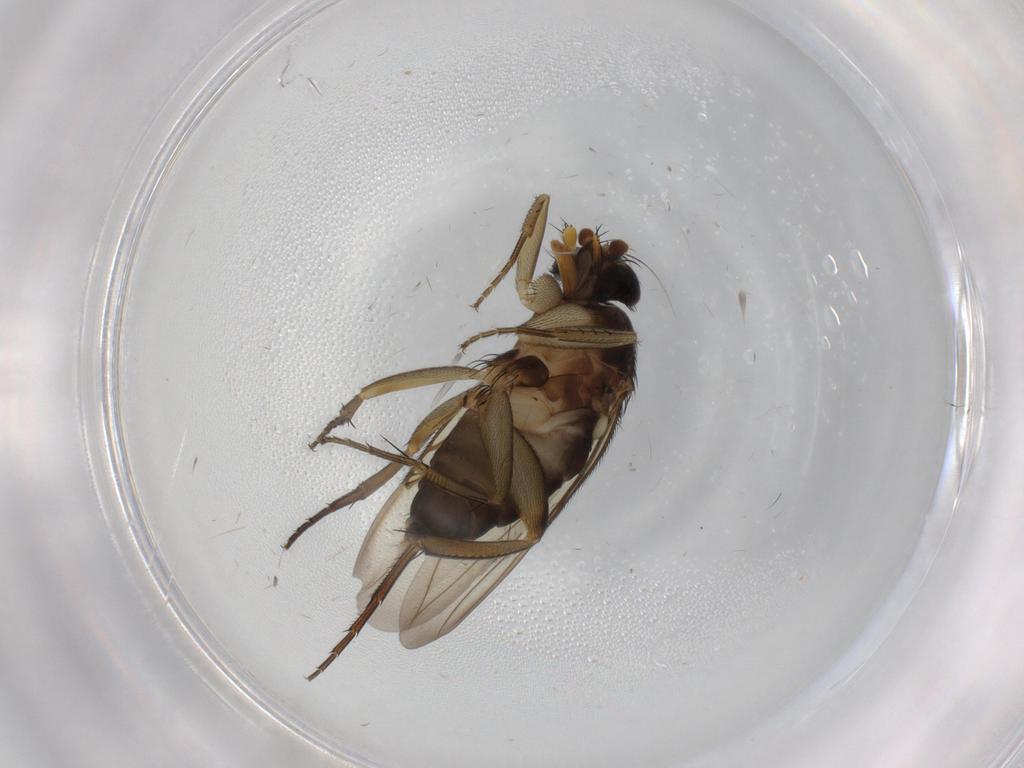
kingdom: Animalia
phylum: Arthropoda
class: Insecta
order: Diptera
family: Phoridae
